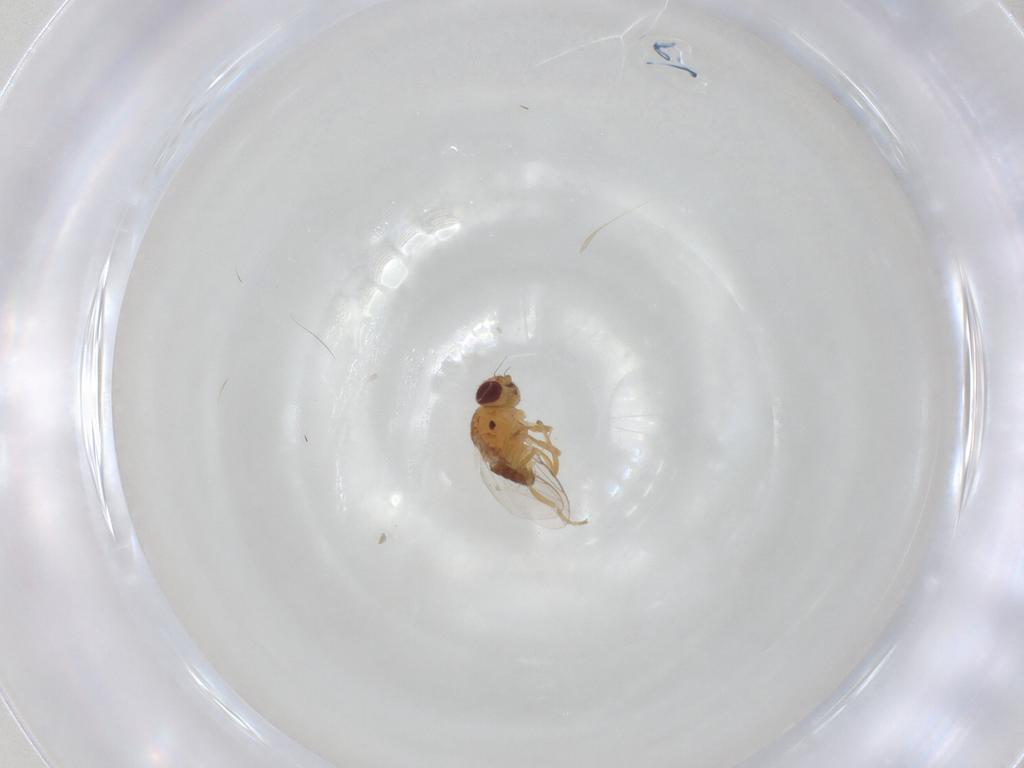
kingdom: Animalia
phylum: Arthropoda
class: Insecta
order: Diptera
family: Chloropidae
